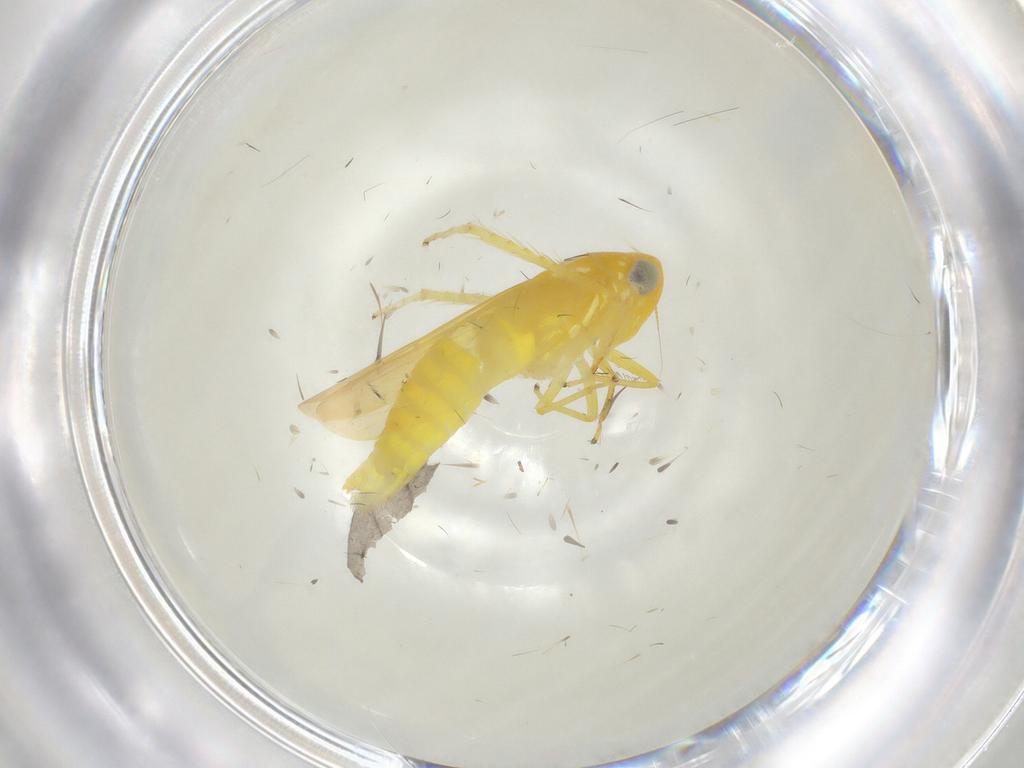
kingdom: Animalia
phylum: Arthropoda
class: Insecta
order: Hemiptera
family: Cicadellidae
